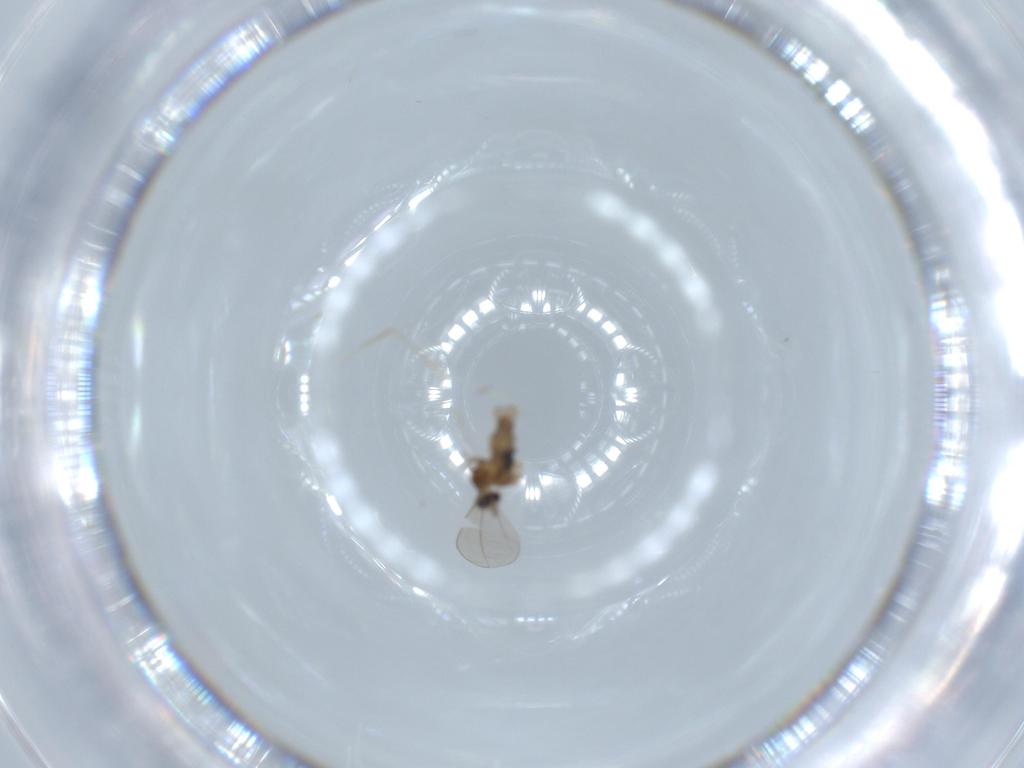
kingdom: Animalia
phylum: Arthropoda
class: Insecta
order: Diptera
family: Cecidomyiidae
